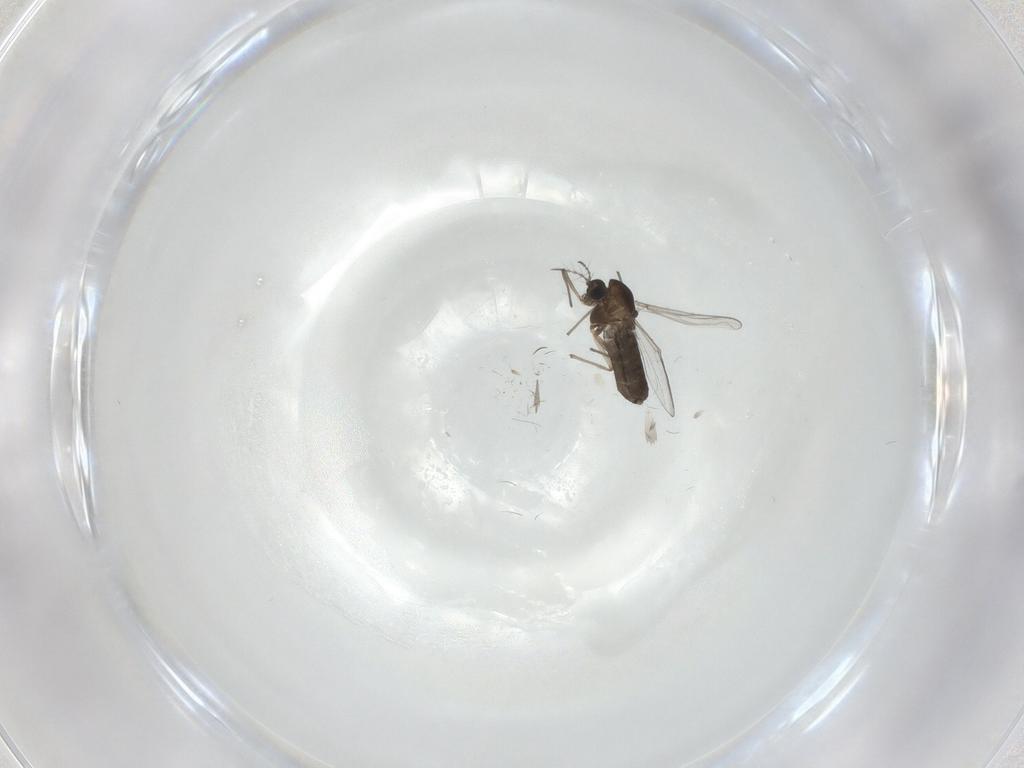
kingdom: Animalia
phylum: Arthropoda
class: Insecta
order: Diptera
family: Chironomidae
